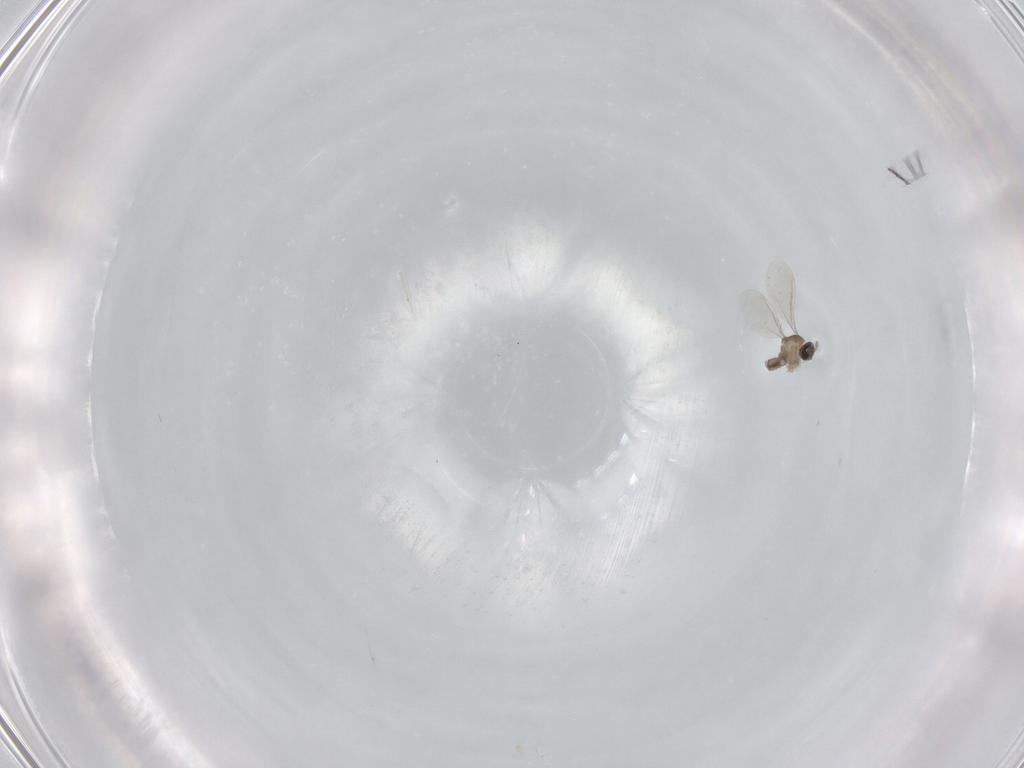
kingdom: Animalia
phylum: Arthropoda
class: Insecta
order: Diptera
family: Cecidomyiidae
